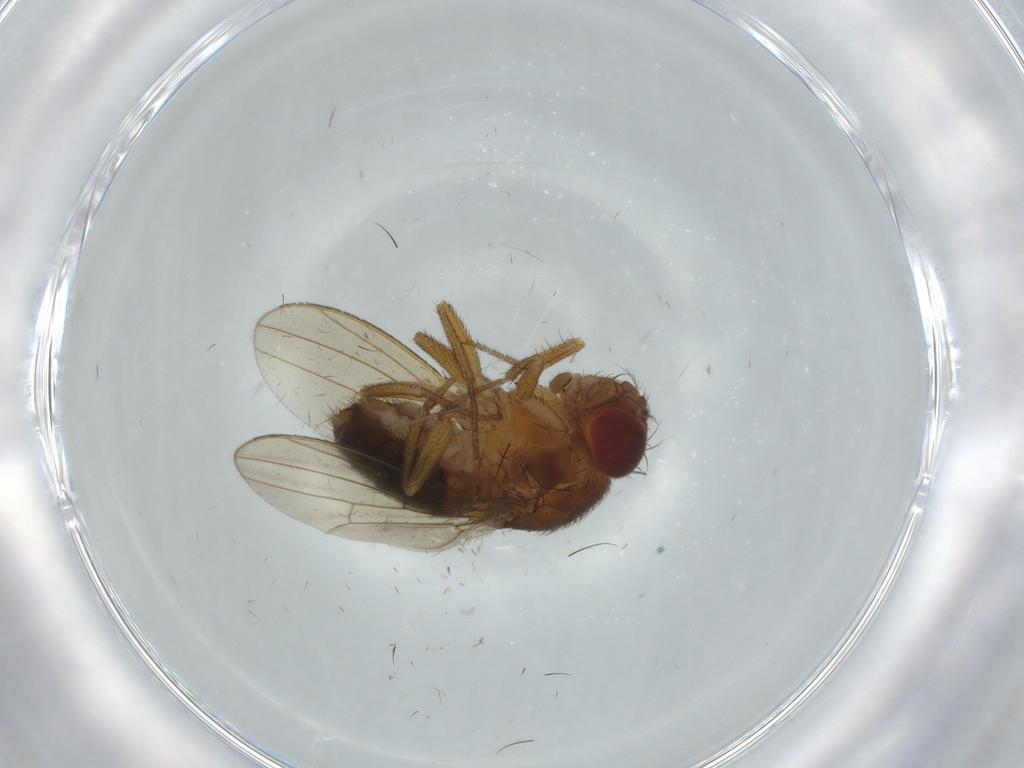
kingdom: Animalia
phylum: Arthropoda
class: Insecta
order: Diptera
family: Drosophilidae
